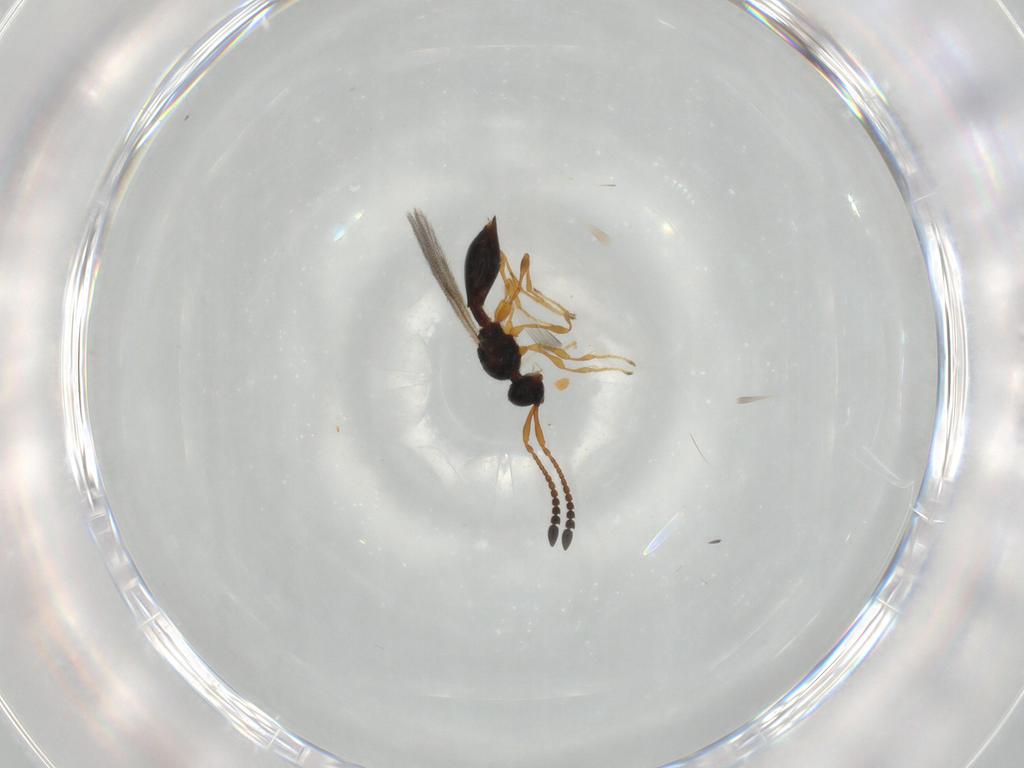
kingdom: Animalia
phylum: Arthropoda
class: Insecta
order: Hymenoptera
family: Diapriidae
